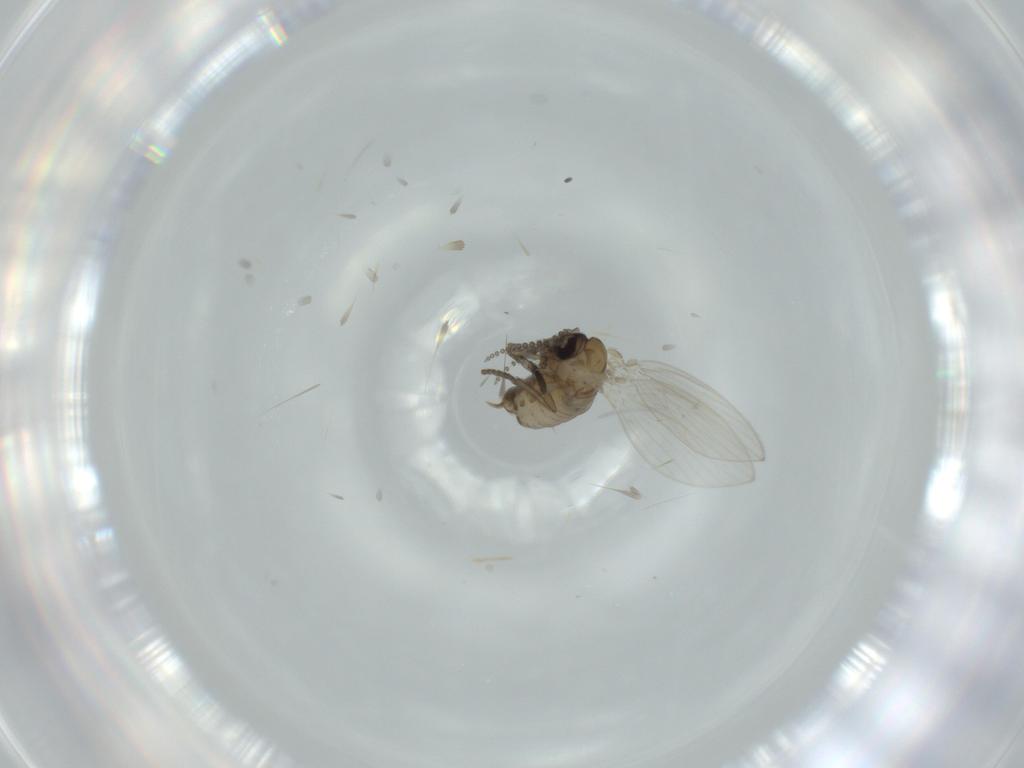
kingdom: Animalia
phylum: Arthropoda
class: Insecta
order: Diptera
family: Psychodidae
